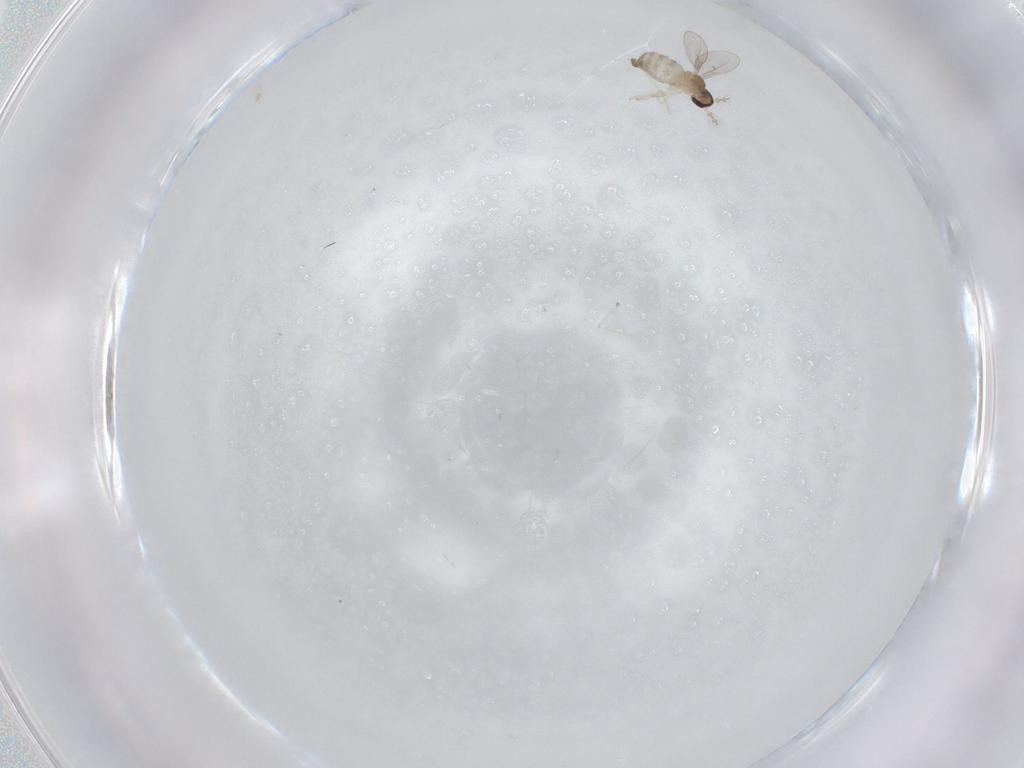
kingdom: Animalia
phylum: Arthropoda
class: Insecta
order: Diptera
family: Cecidomyiidae
